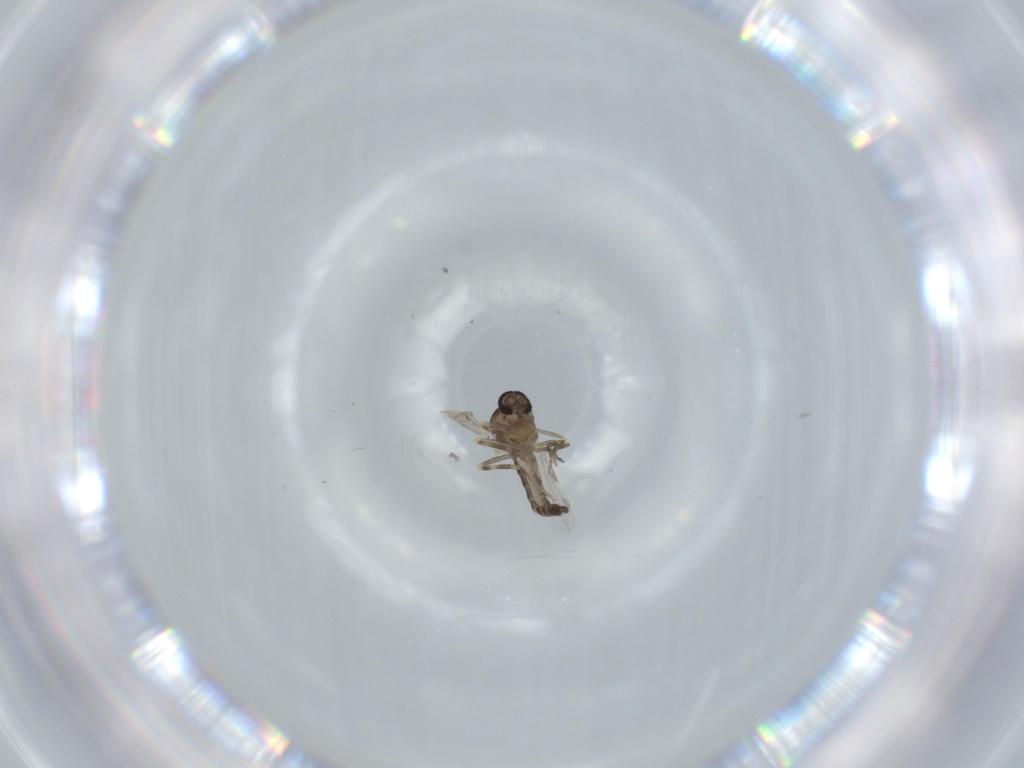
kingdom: Animalia
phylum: Arthropoda
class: Insecta
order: Diptera
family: Ceratopogonidae
